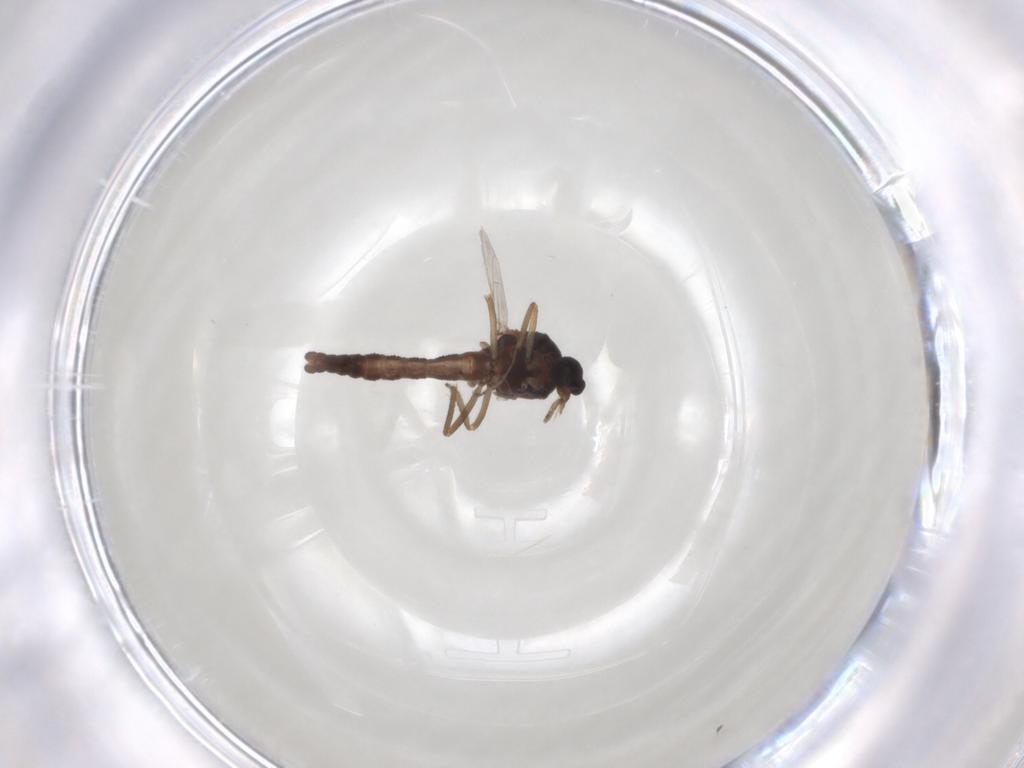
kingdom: Animalia
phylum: Arthropoda
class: Insecta
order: Diptera
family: Ceratopogonidae
